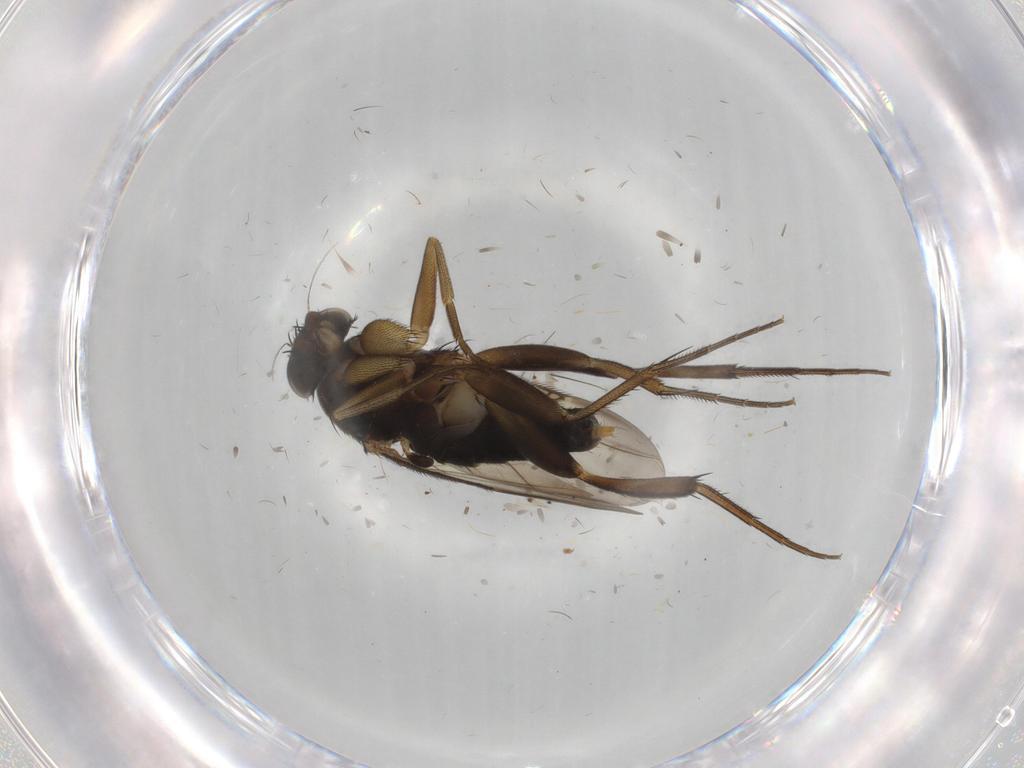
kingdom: Animalia
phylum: Arthropoda
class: Insecta
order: Diptera
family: Phoridae
